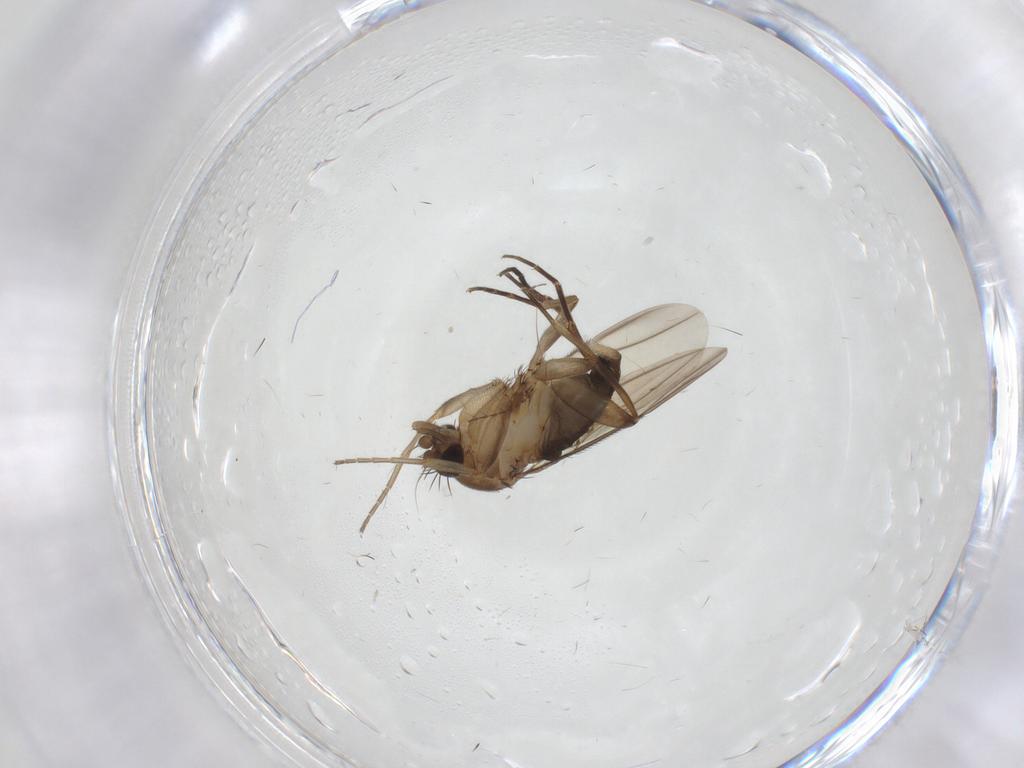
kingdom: Animalia
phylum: Arthropoda
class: Insecta
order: Diptera
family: Phoridae
